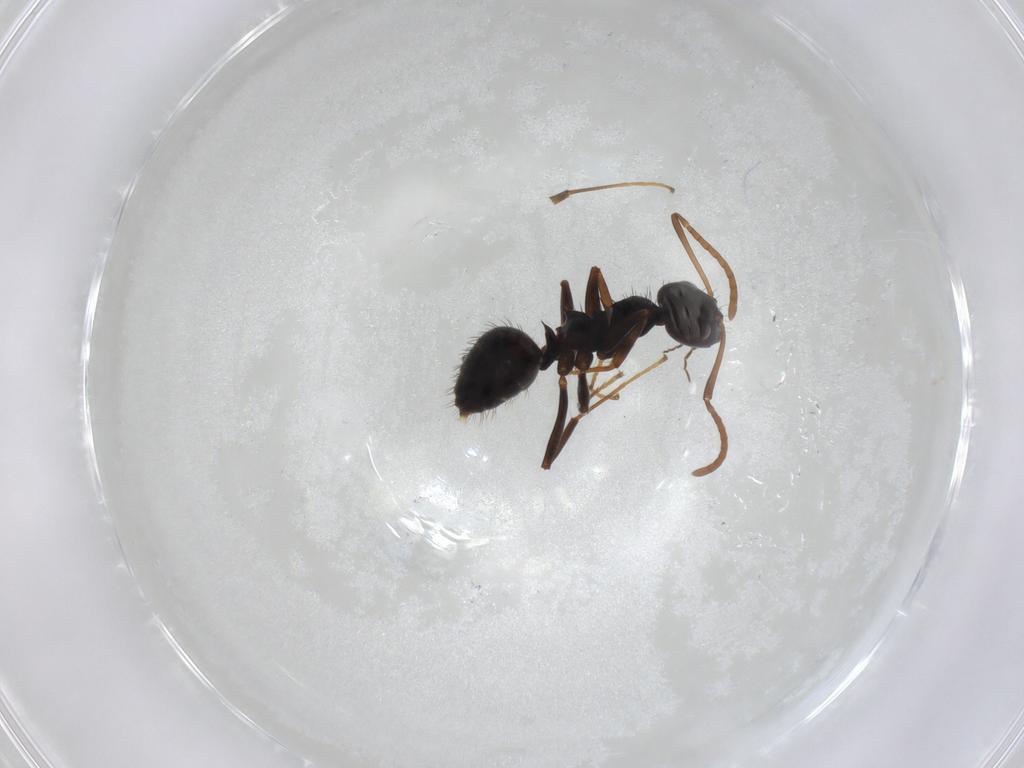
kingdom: Animalia
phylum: Arthropoda
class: Insecta
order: Hymenoptera
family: Formicidae
